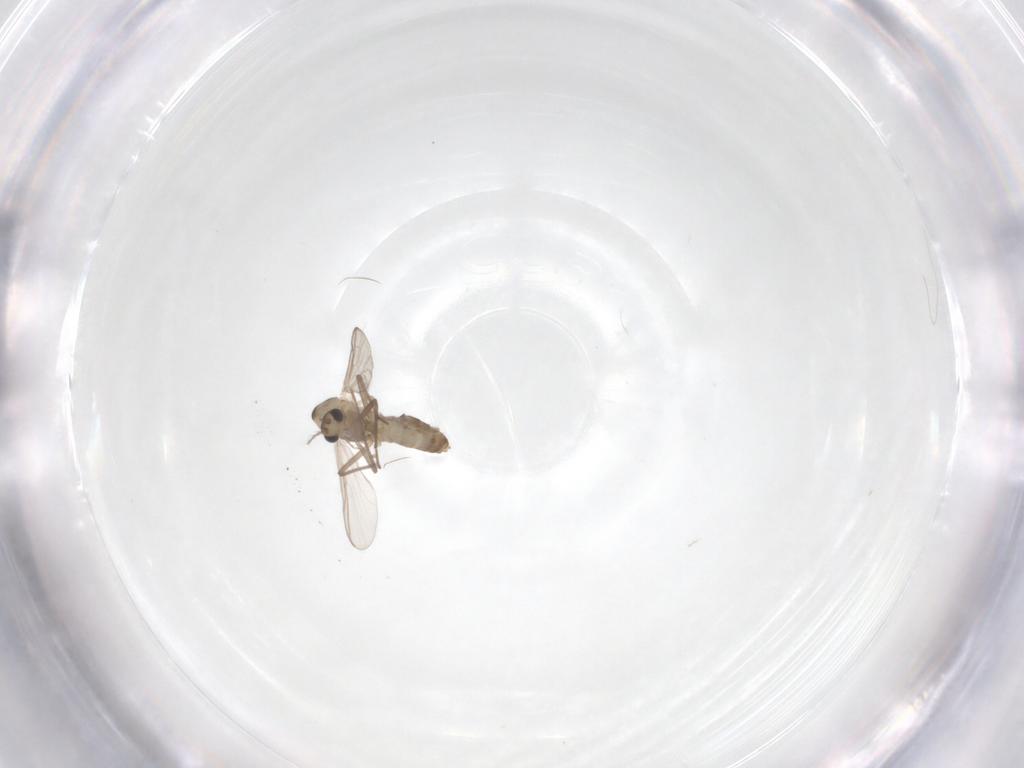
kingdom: Animalia
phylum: Arthropoda
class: Insecta
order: Diptera
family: Chironomidae
